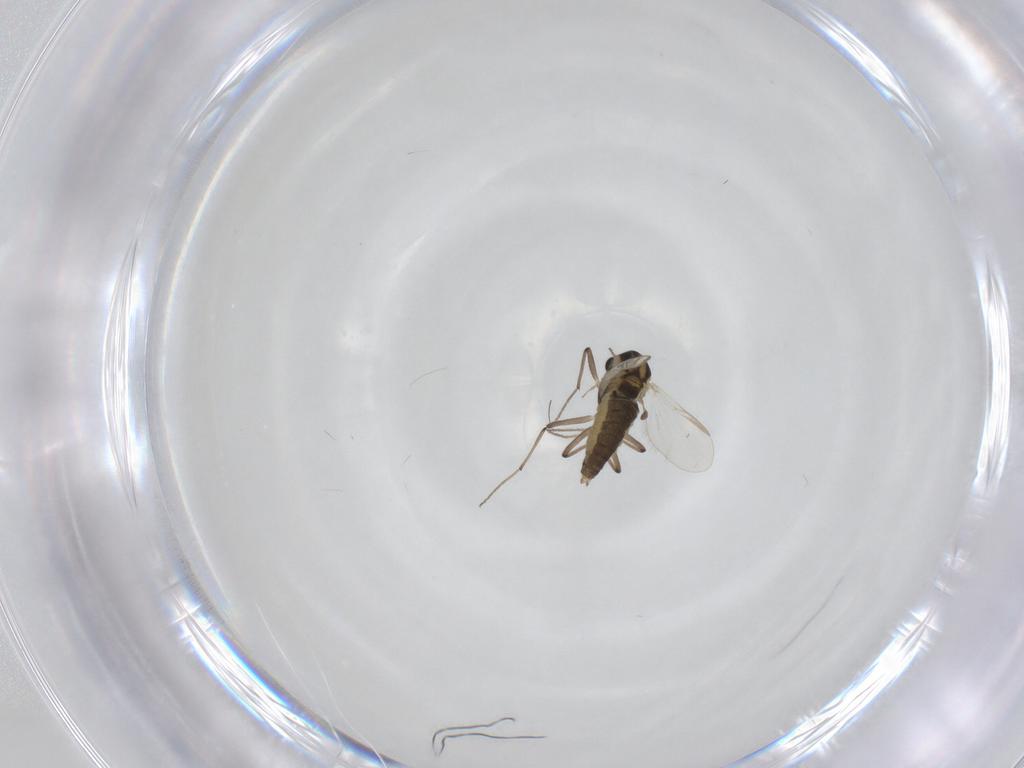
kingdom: Animalia
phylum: Arthropoda
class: Insecta
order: Diptera
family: Chironomidae
